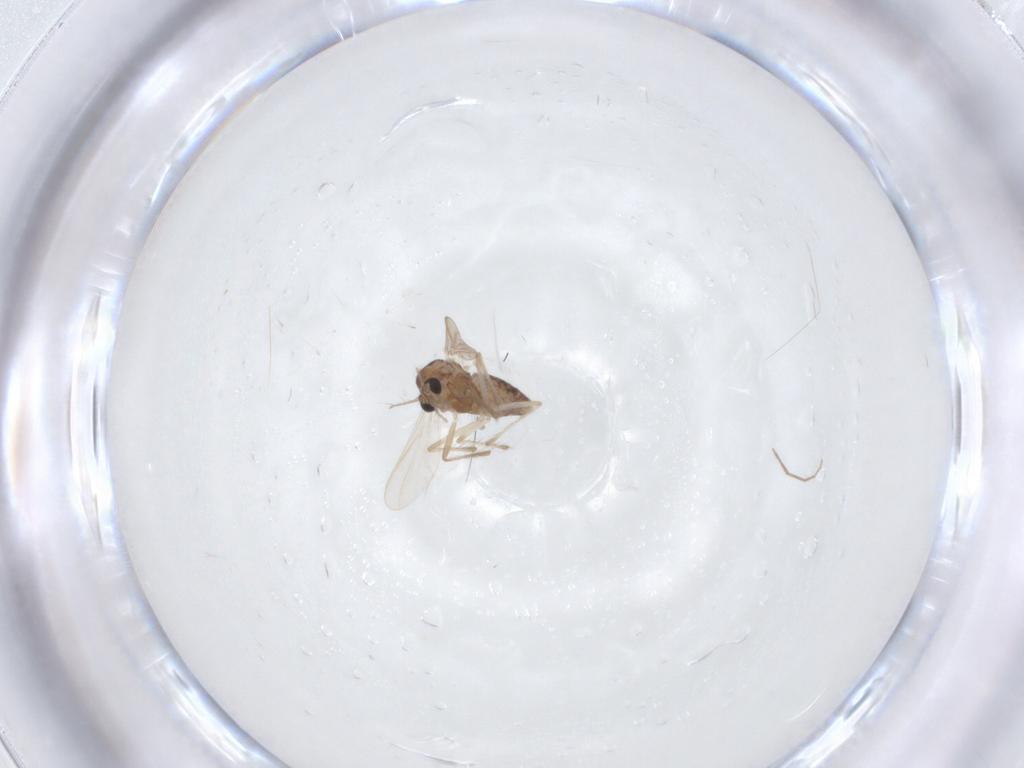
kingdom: Animalia
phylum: Arthropoda
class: Insecta
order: Diptera
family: Chironomidae
